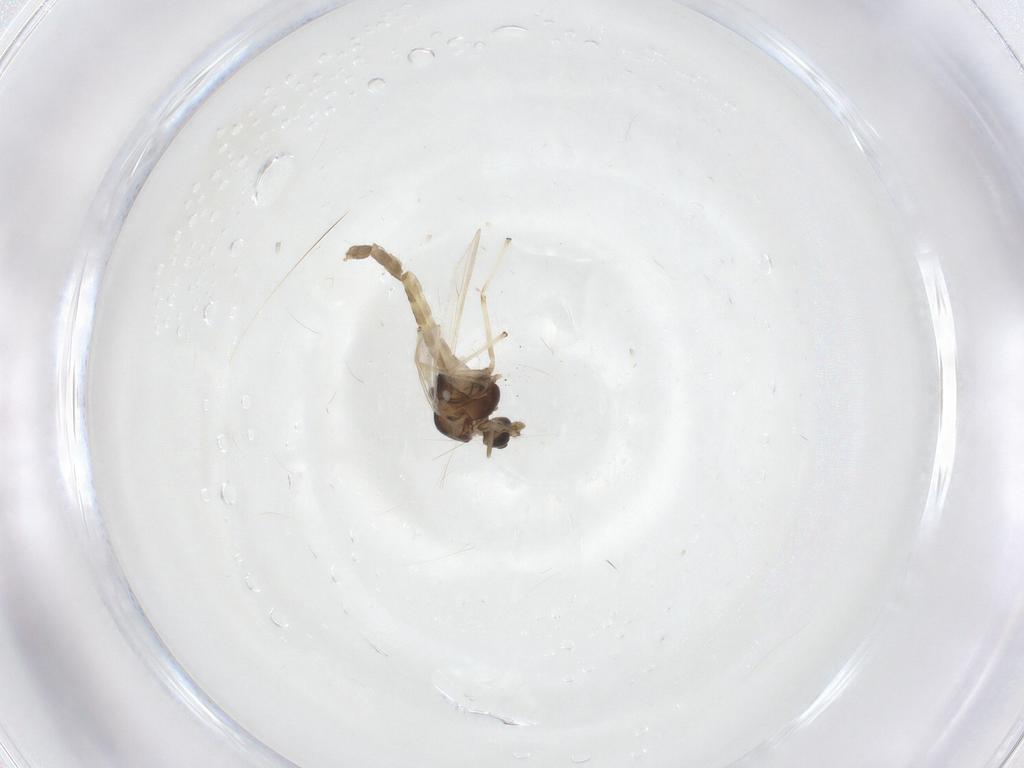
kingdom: Animalia
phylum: Arthropoda
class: Insecta
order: Diptera
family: Chironomidae
